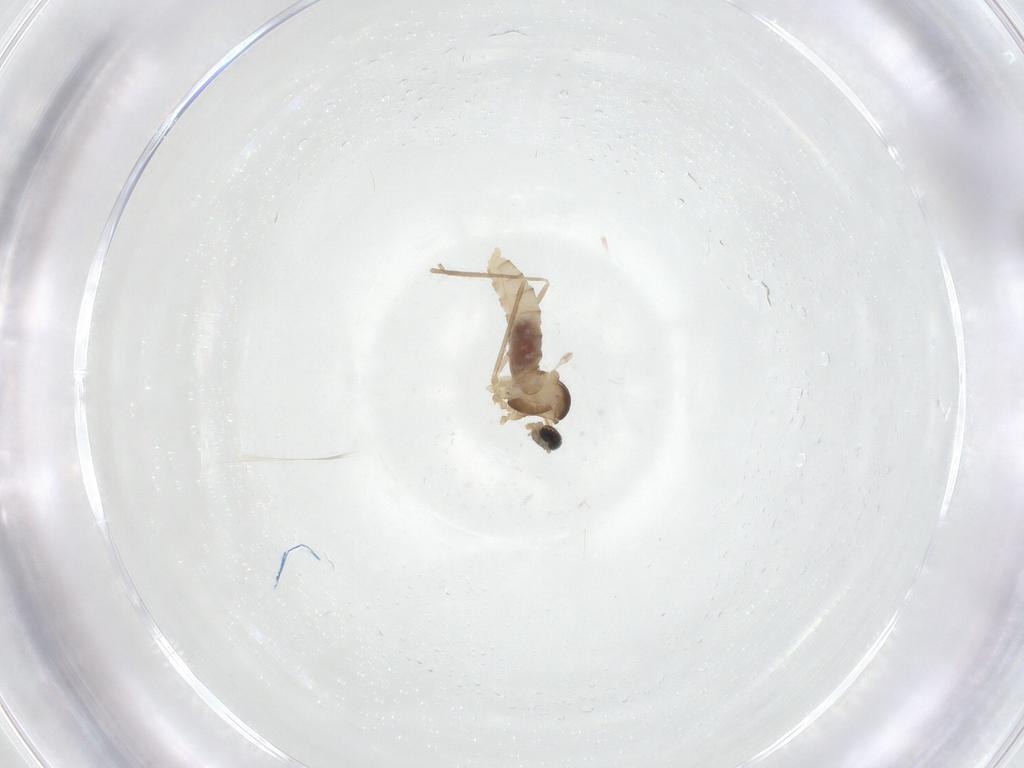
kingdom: Animalia
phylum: Arthropoda
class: Insecta
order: Diptera
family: Cecidomyiidae
